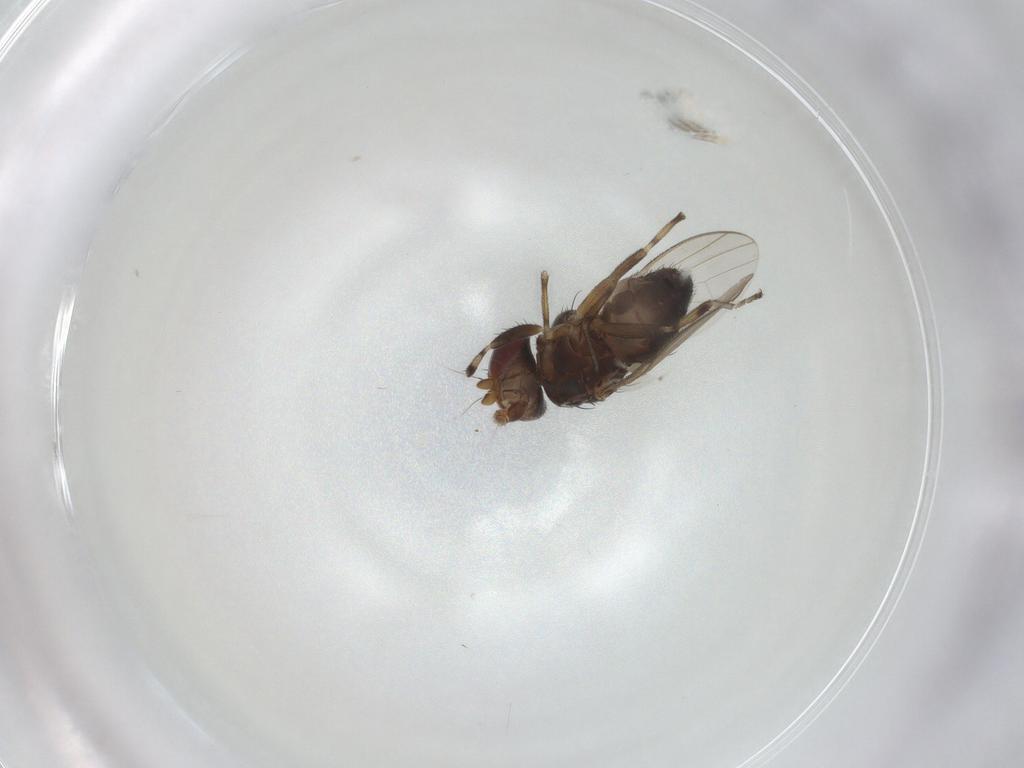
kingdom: Animalia
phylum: Arthropoda
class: Insecta
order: Diptera
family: Heleomyzidae
